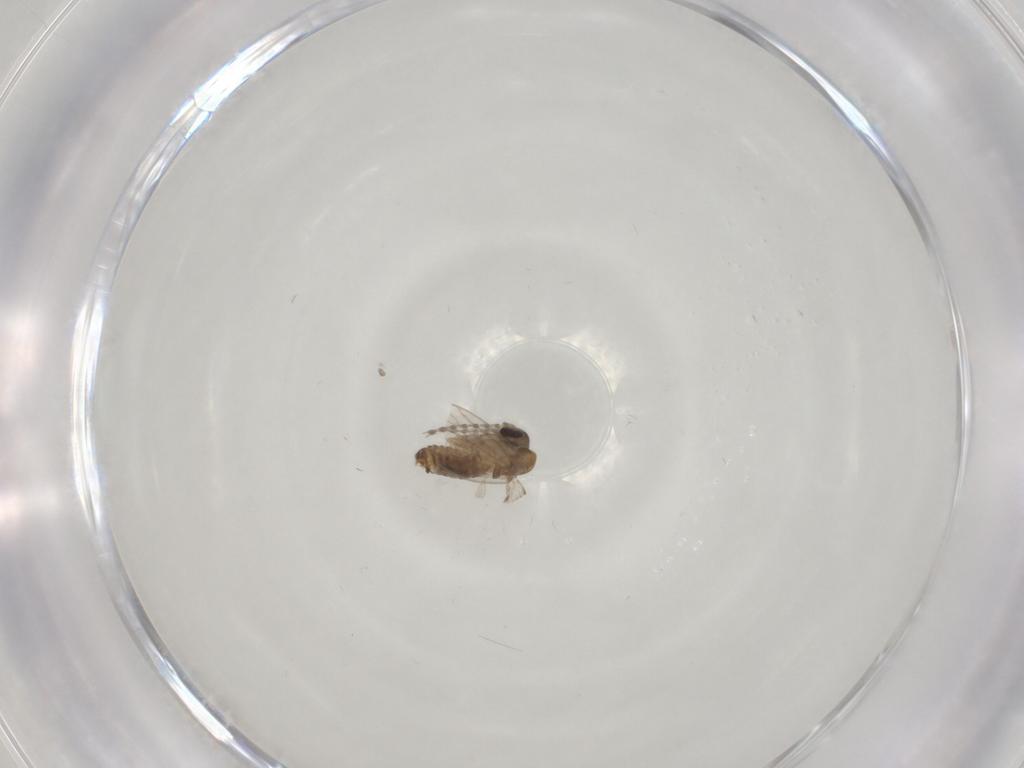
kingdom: Animalia
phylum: Arthropoda
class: Insecta
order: Diptera
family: Psychodidae
